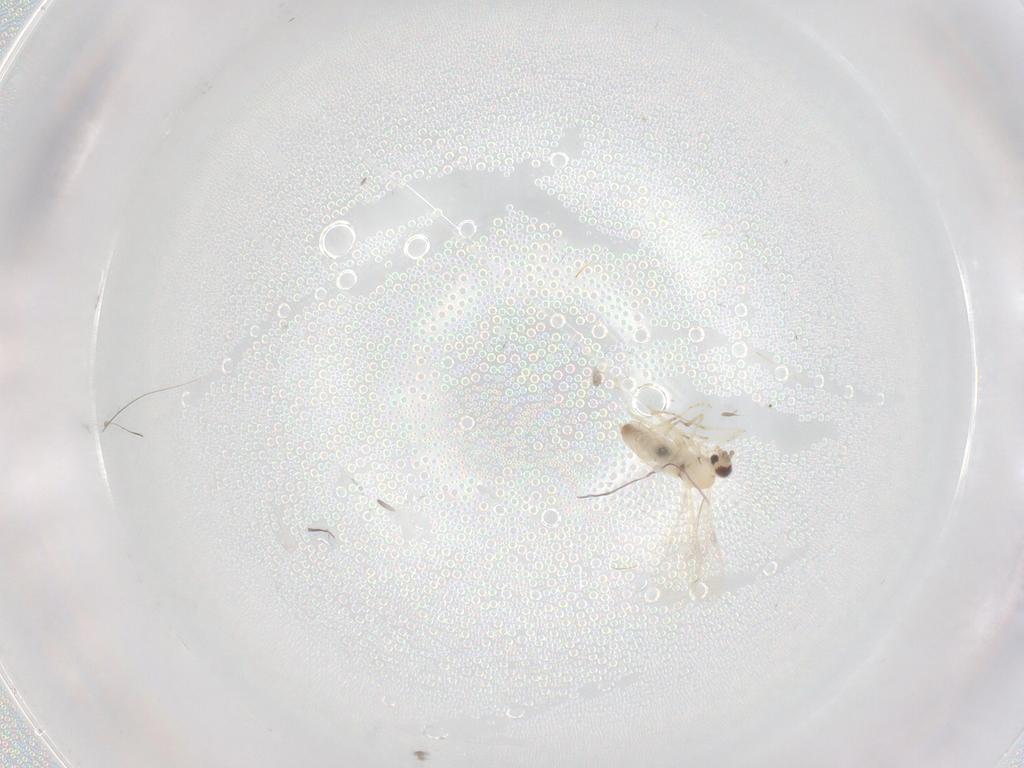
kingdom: Animalia
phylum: Arthropoda
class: Insecta
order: Diptera
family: Cecidomyiidae
